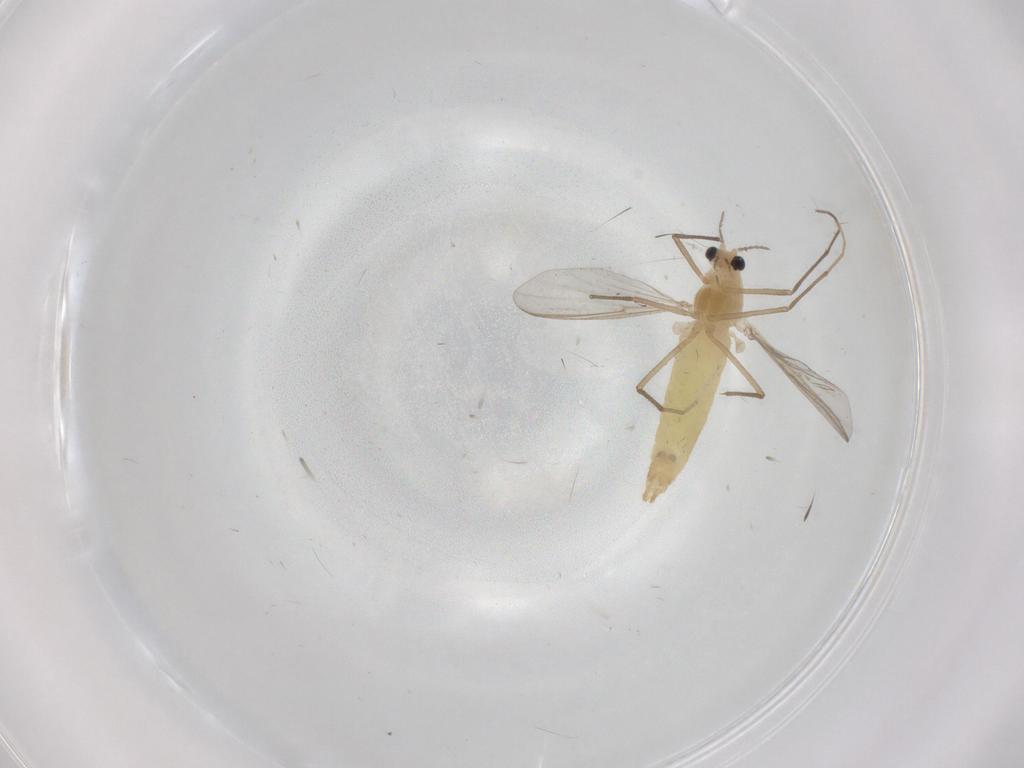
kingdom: Animalia
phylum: Arthropoda
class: Insecta
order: Diptera
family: Chironomidae
